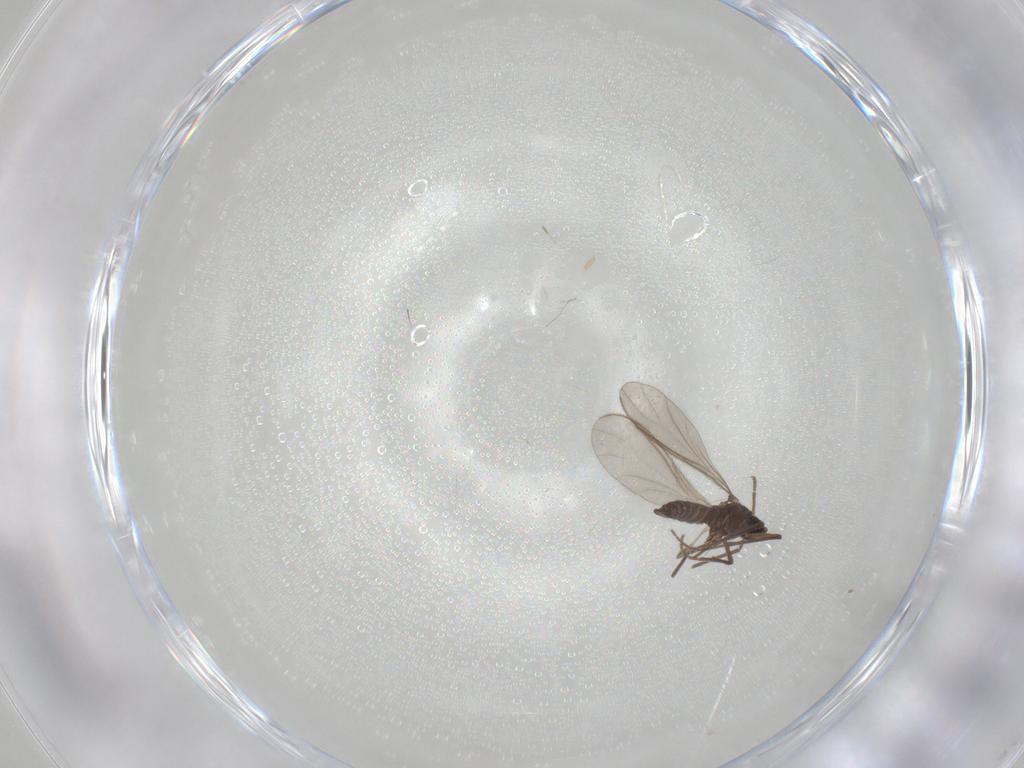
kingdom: Animalia
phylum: Arthropoda
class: Insecta
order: Diptera
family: Sciaridae
